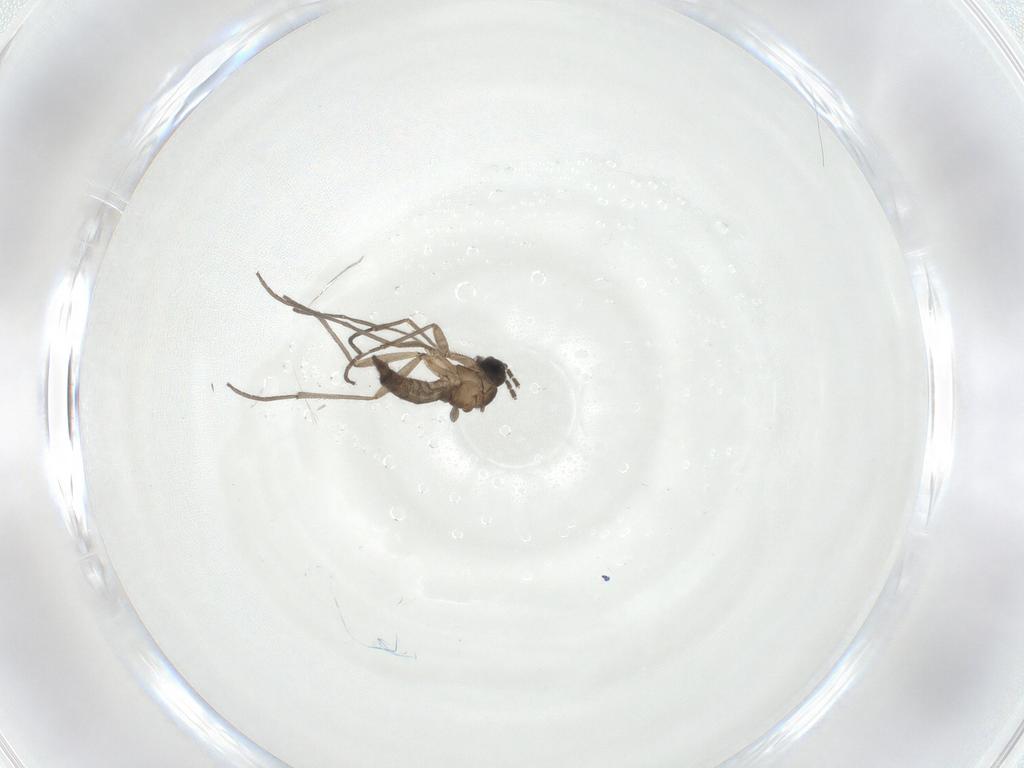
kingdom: Animalia
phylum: Arthropoda
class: Insecta
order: Diptera
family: Sciaridae
